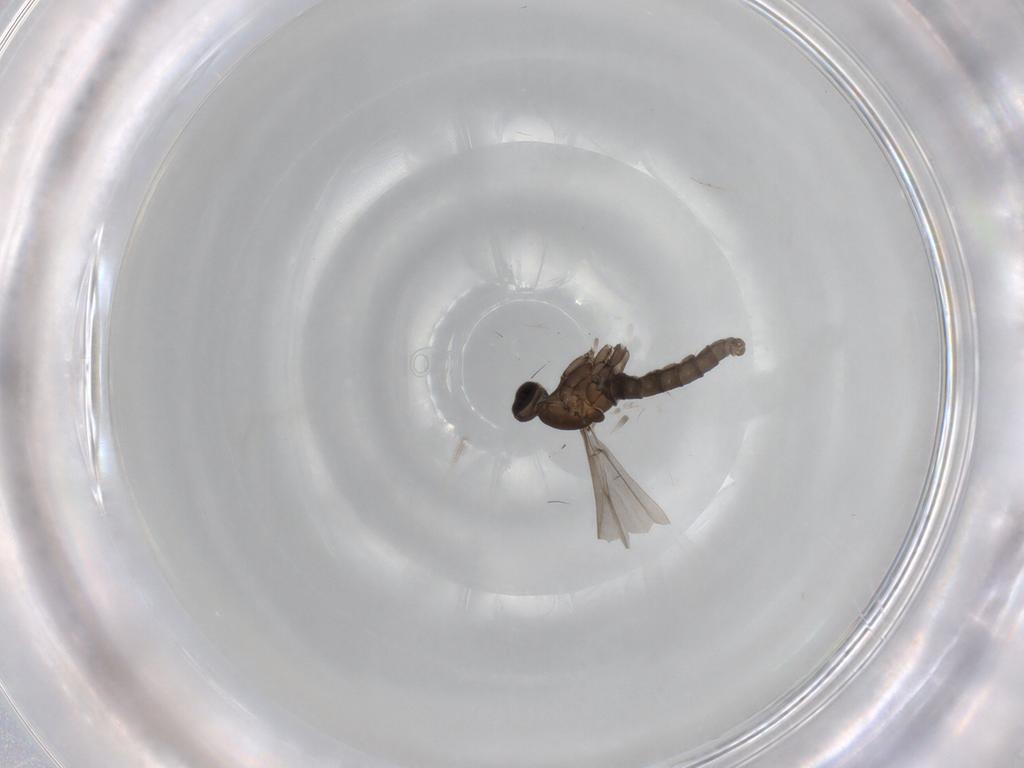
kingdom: Animalia
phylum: Arthropoda
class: Insecta
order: Diptera
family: Cecidomyiidae
